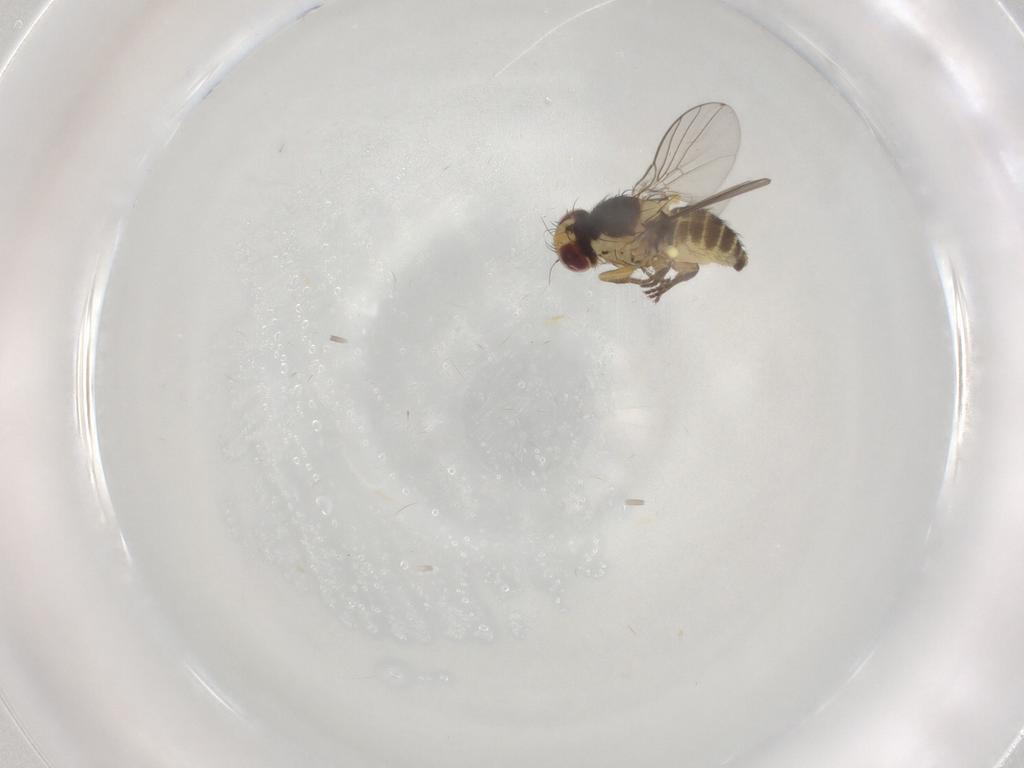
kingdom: Animalia
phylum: Arthropoda
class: Insecta
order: Diptera
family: Agromyzidae
